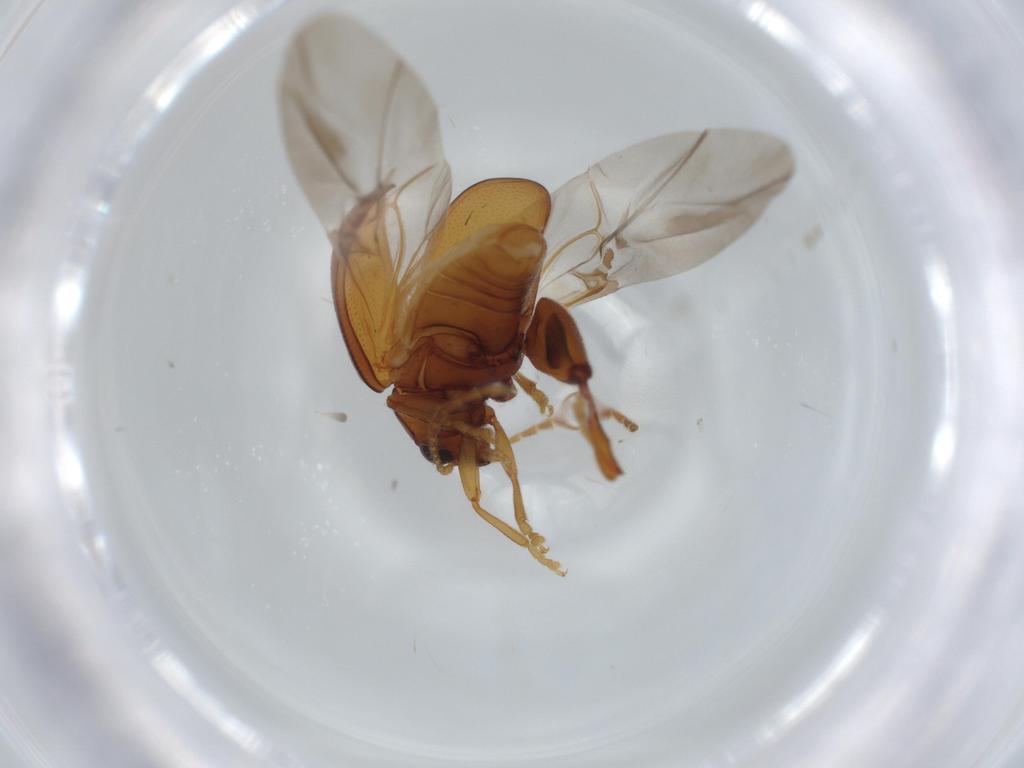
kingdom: Animalia
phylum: Arthropoda
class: Insecta
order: Coleoptera
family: Chrysomelidae
